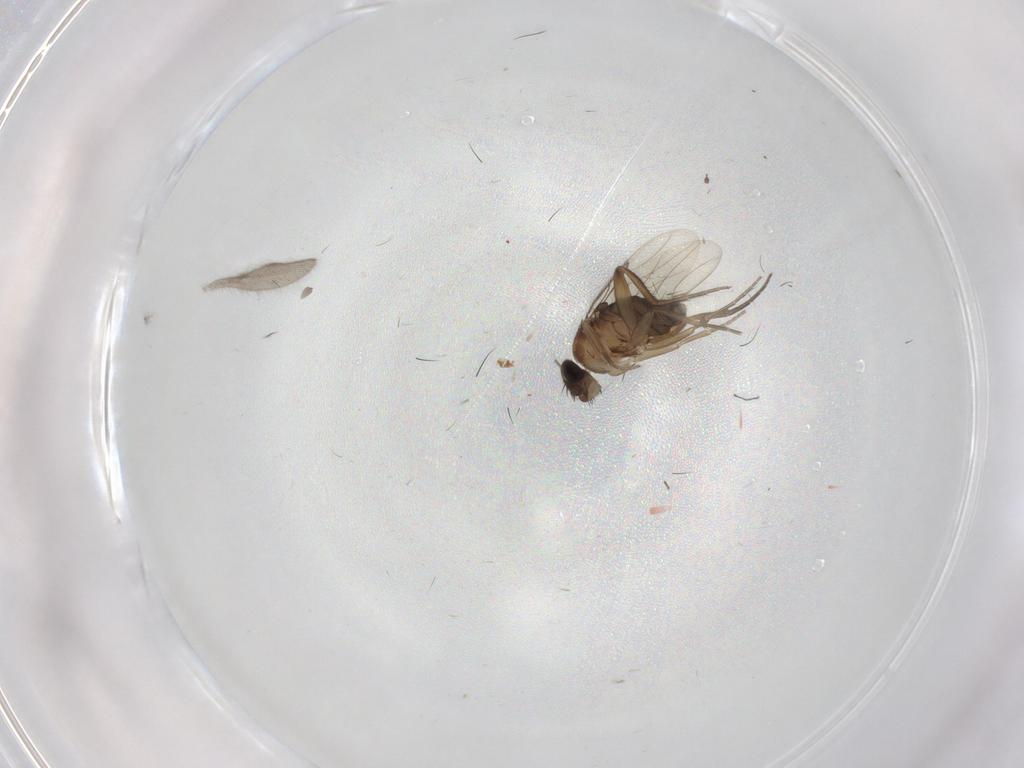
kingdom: Animalia
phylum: Arthropoda
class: Insecta
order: Diptera
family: Phoridae
